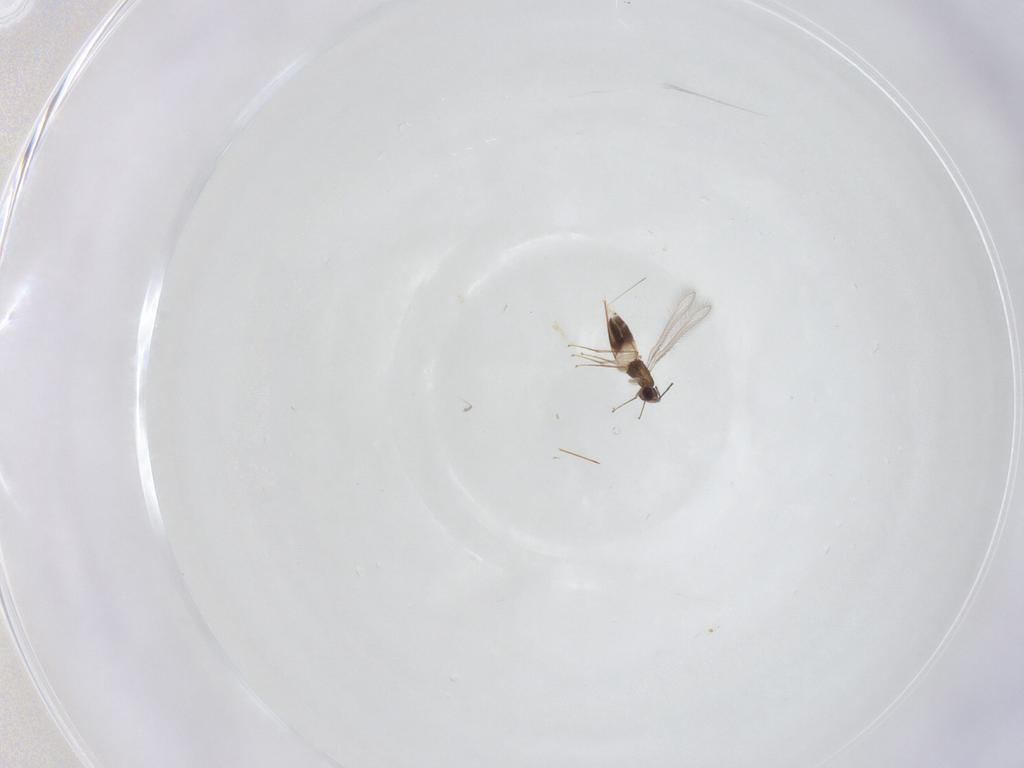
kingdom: Animalia
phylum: Arthropoda
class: Insecta
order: Hymenoptera
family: Mymaridae
